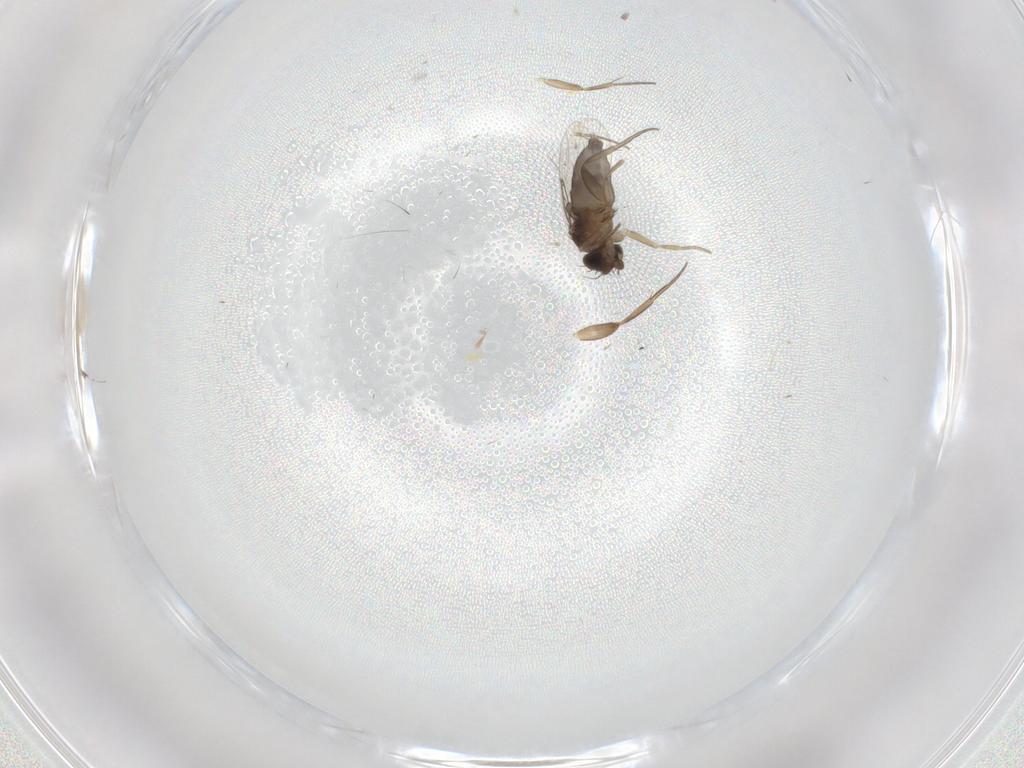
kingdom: Animalia
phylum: Arthropoda
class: Insecta
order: Diptera
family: Phoridae
